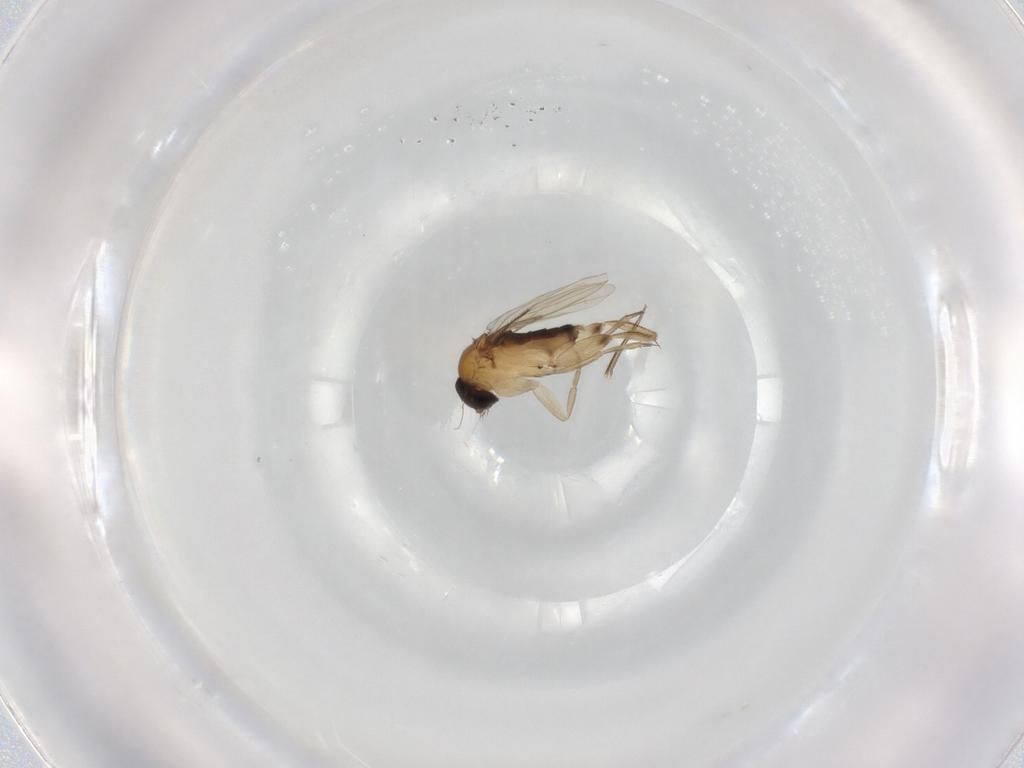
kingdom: Animalia
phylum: Arthropoda
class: Insecta
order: Diptera
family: Phoridae
